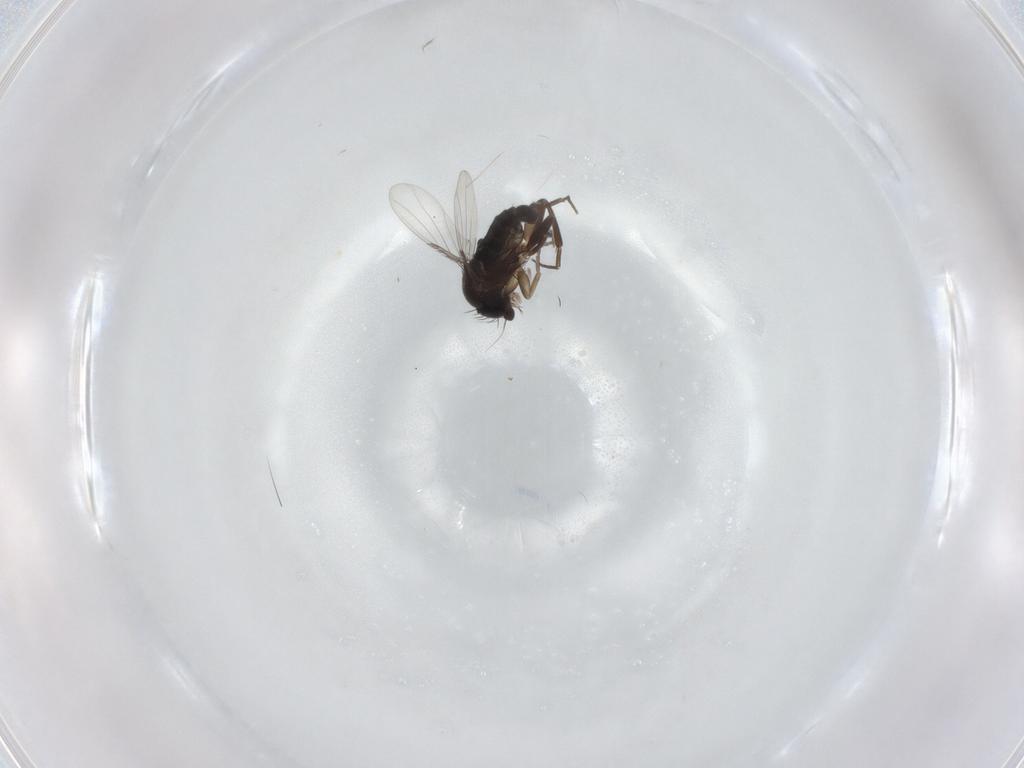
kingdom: Animalia
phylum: Arthropoda
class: Insecta
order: Diptera
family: Phoridae
